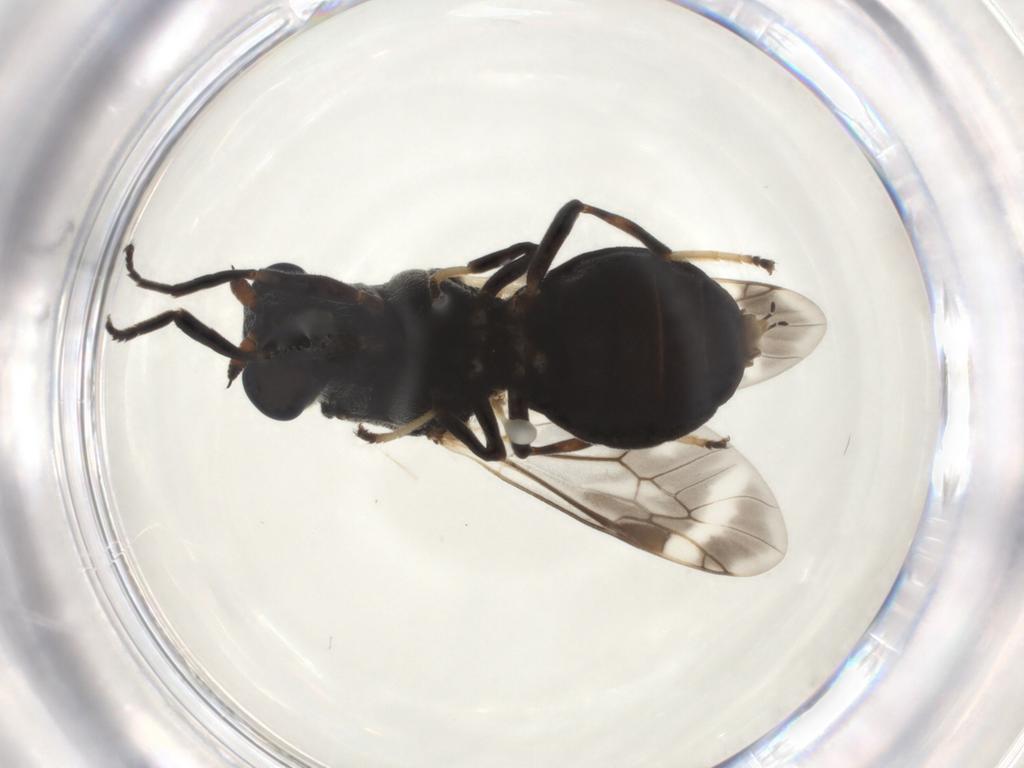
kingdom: Animalia
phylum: Arthropoda
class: Insecta
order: Diptera
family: Stratiomyidae
